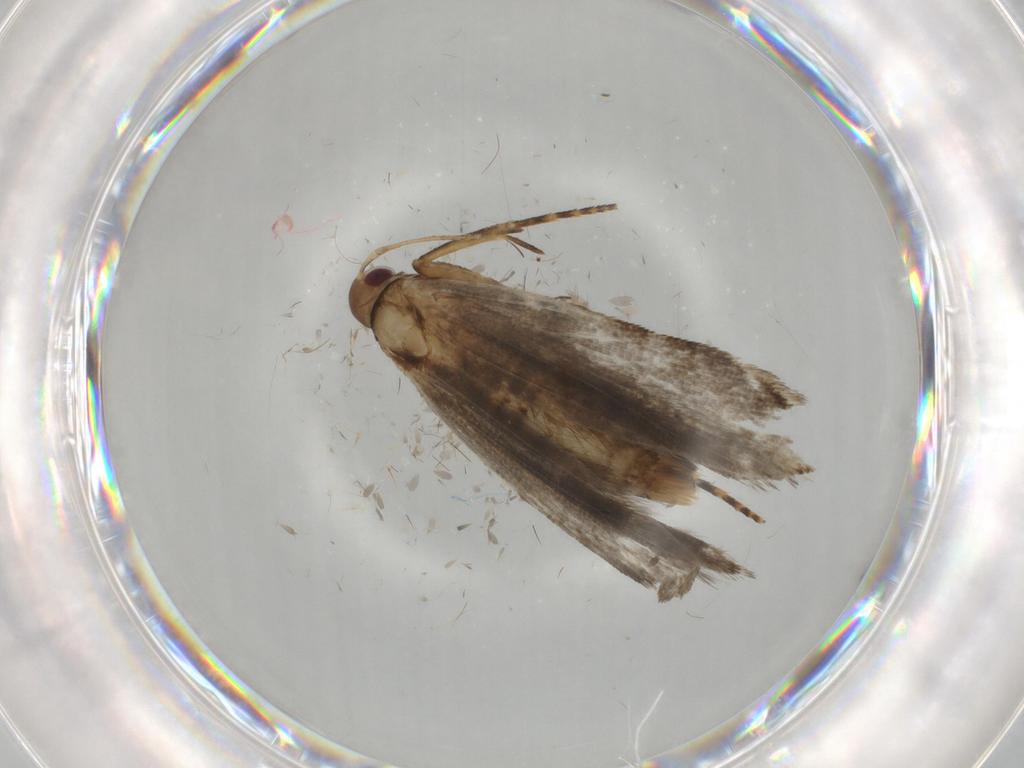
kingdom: Animalia
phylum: Arthropoda
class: Insecta
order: Lepidoptera
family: Gelechiidae
